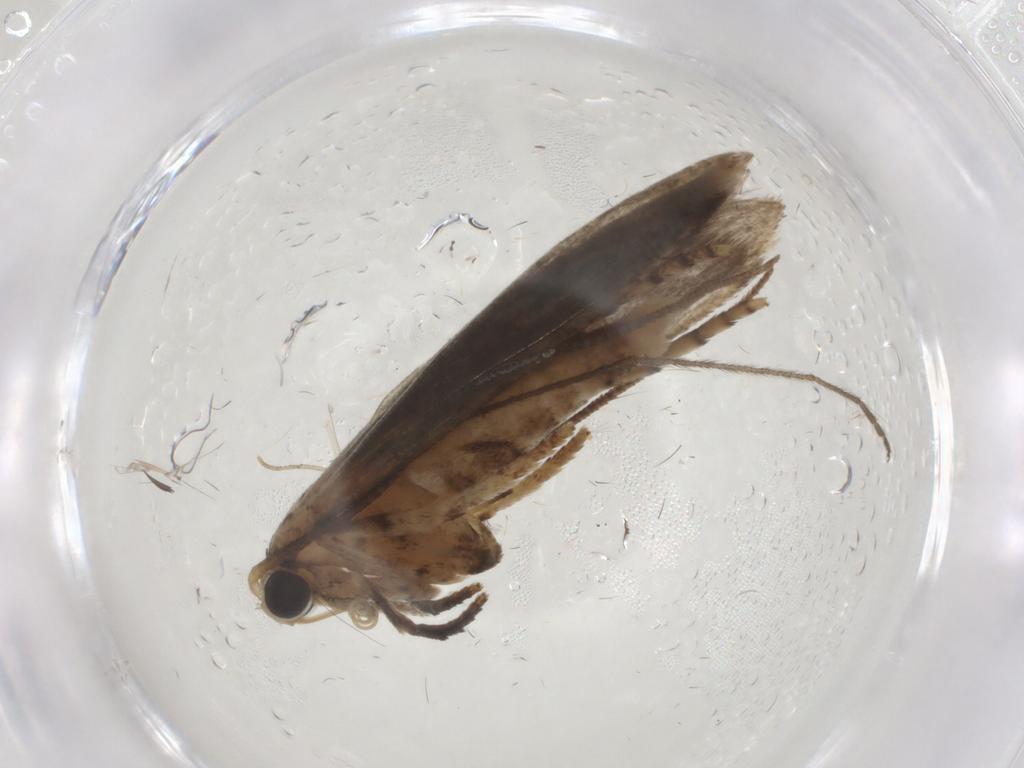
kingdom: Animalia
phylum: Arthropoda
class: Insecta
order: Lepidoptera
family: Yponomeutidae
